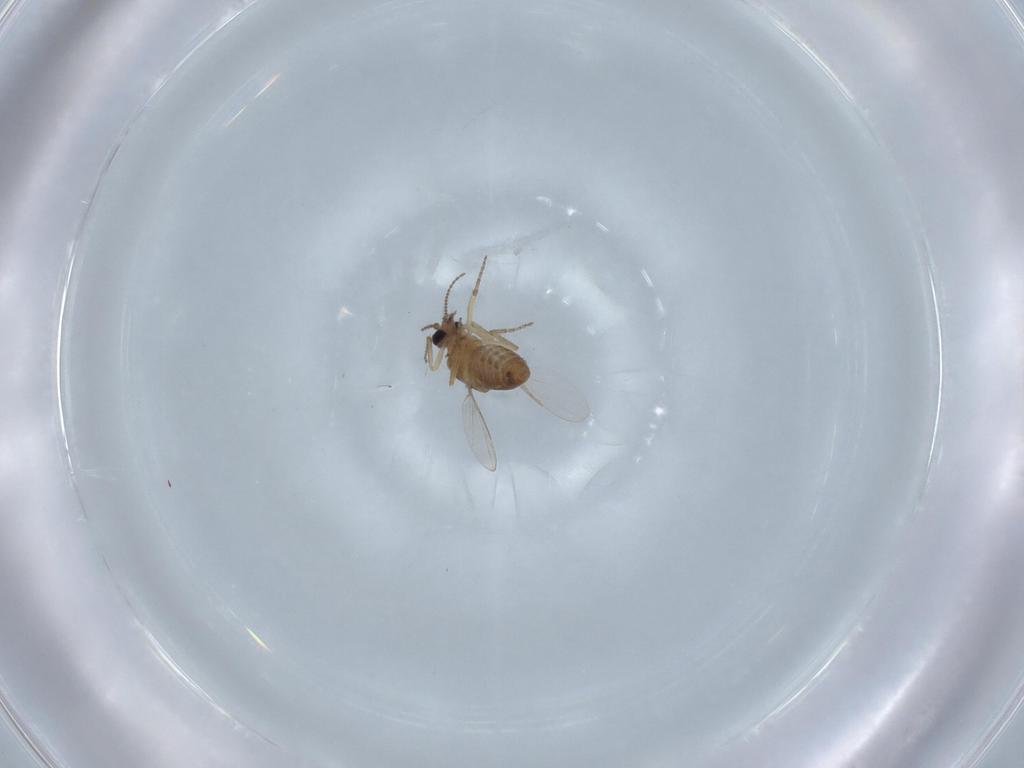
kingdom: Animalia
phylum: Arthropoda
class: Insecta
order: Diptera
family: Ceratopogonidae
